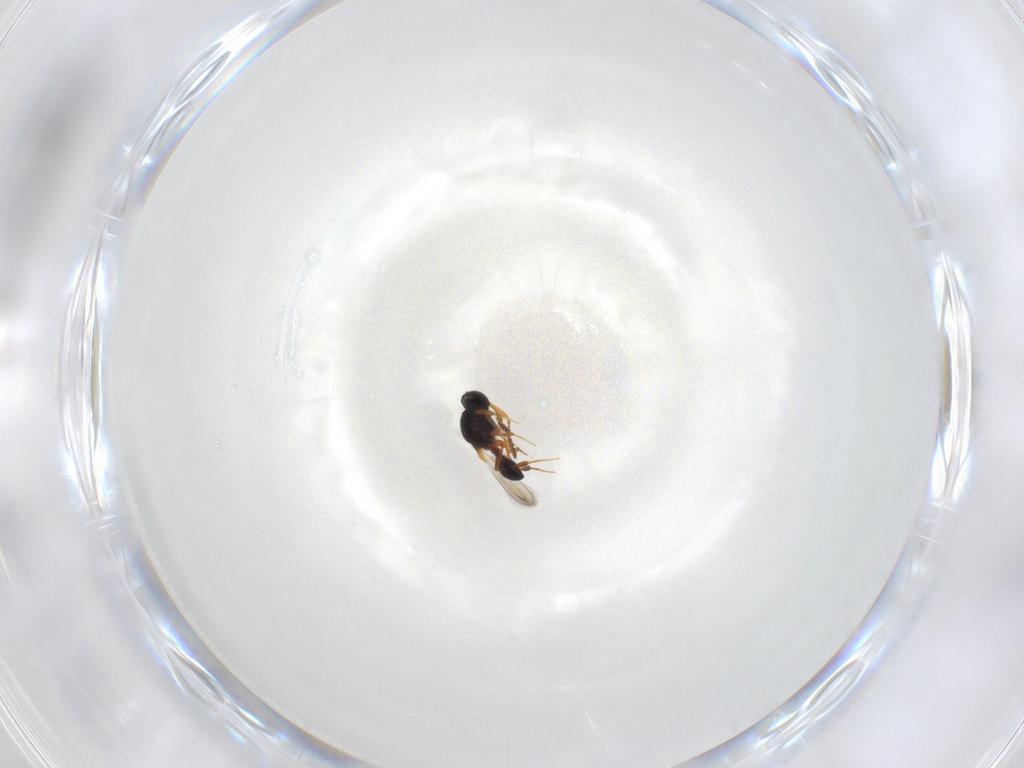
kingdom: Animalia
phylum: Arthropoda
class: Insecta
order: Hymenoptera
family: Platygastridae
